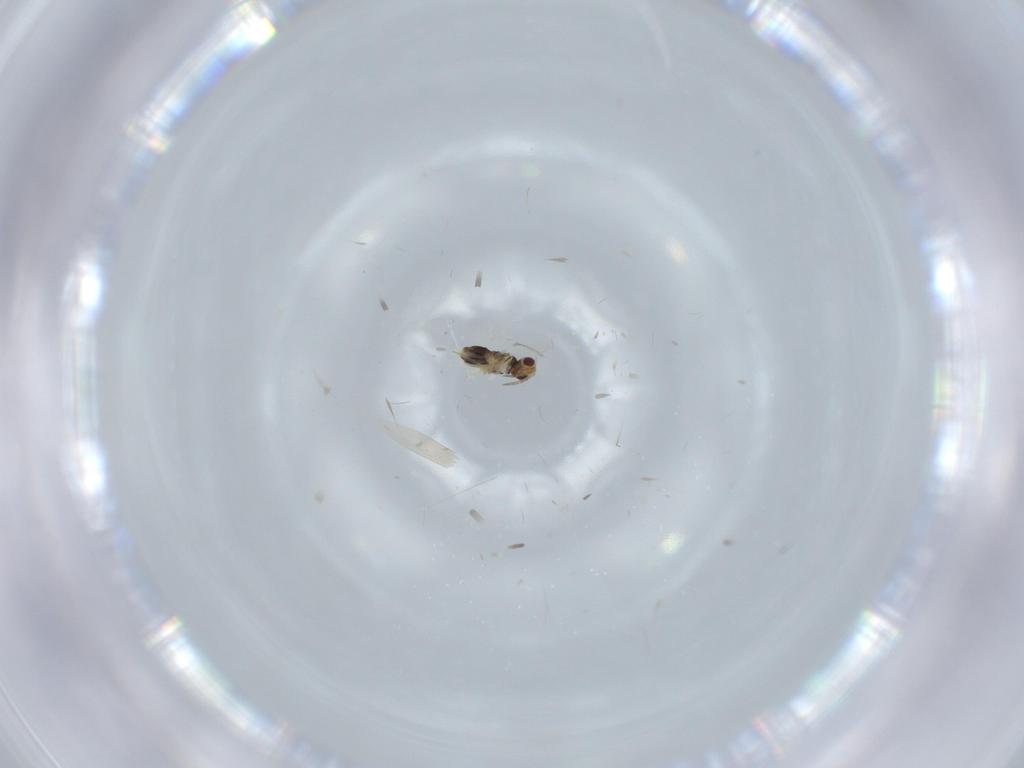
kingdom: Animalia
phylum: Arthropoda
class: Insecta
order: Hymenoptera
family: Aphelinidae
